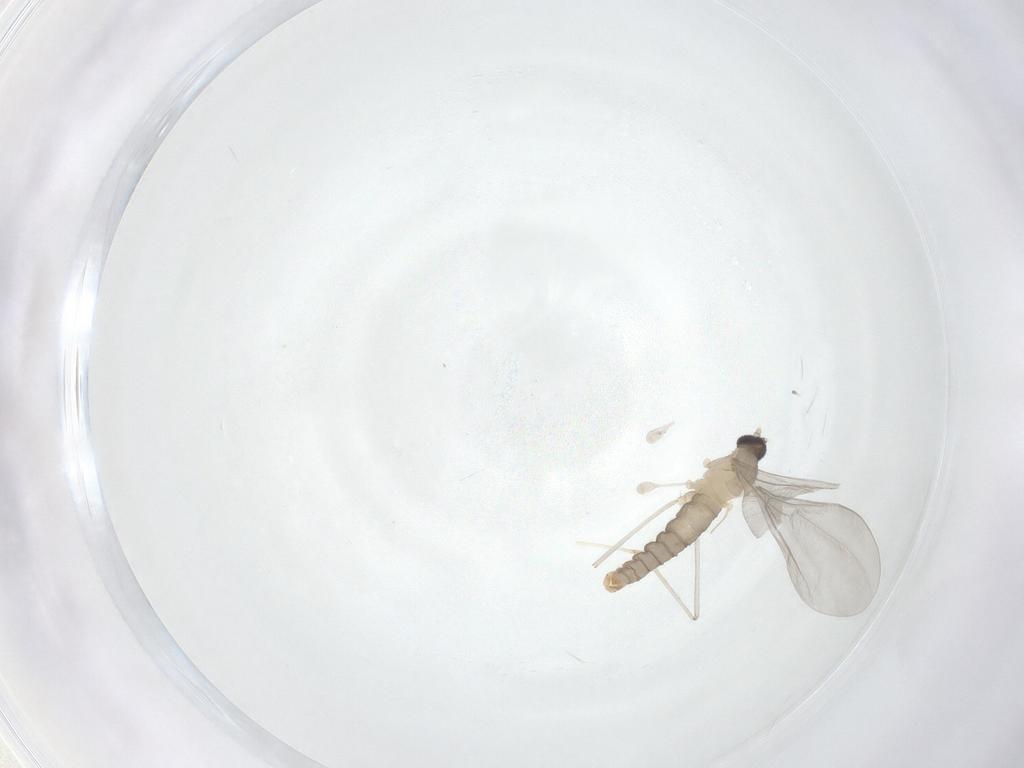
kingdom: Animalia
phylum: Arthropoda
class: Insecta
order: Diptera
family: Cecidomyiidae
